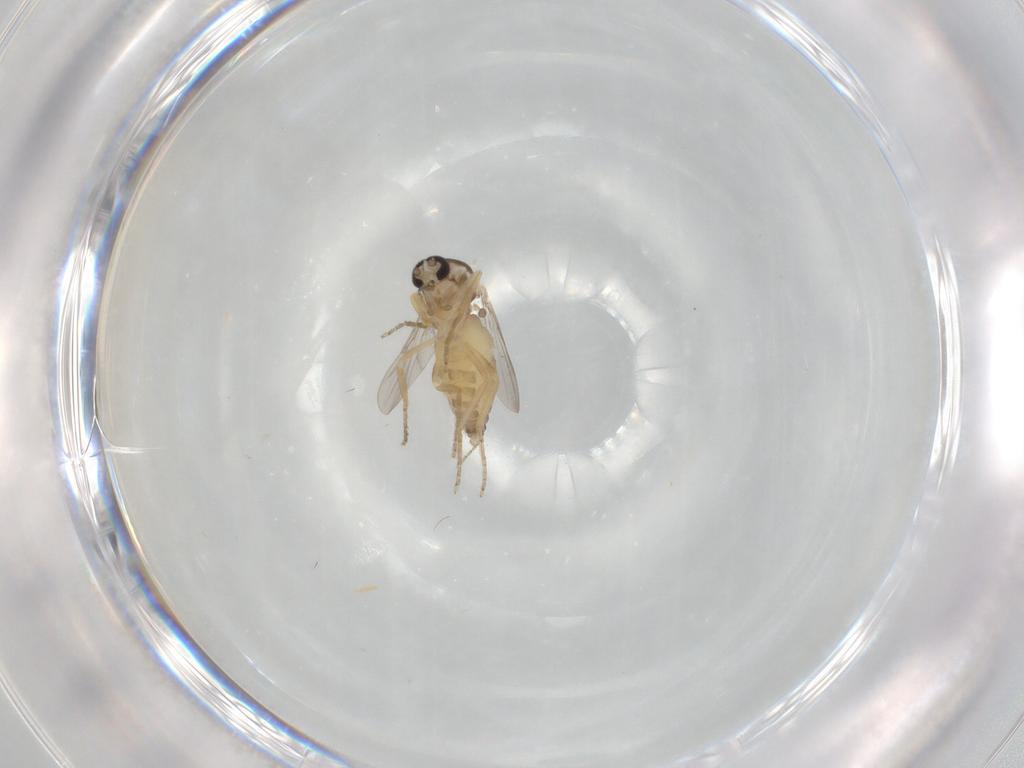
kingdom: Animalia
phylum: Arthropoda
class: Insecta
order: Diptera
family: Ceratopogonidae
